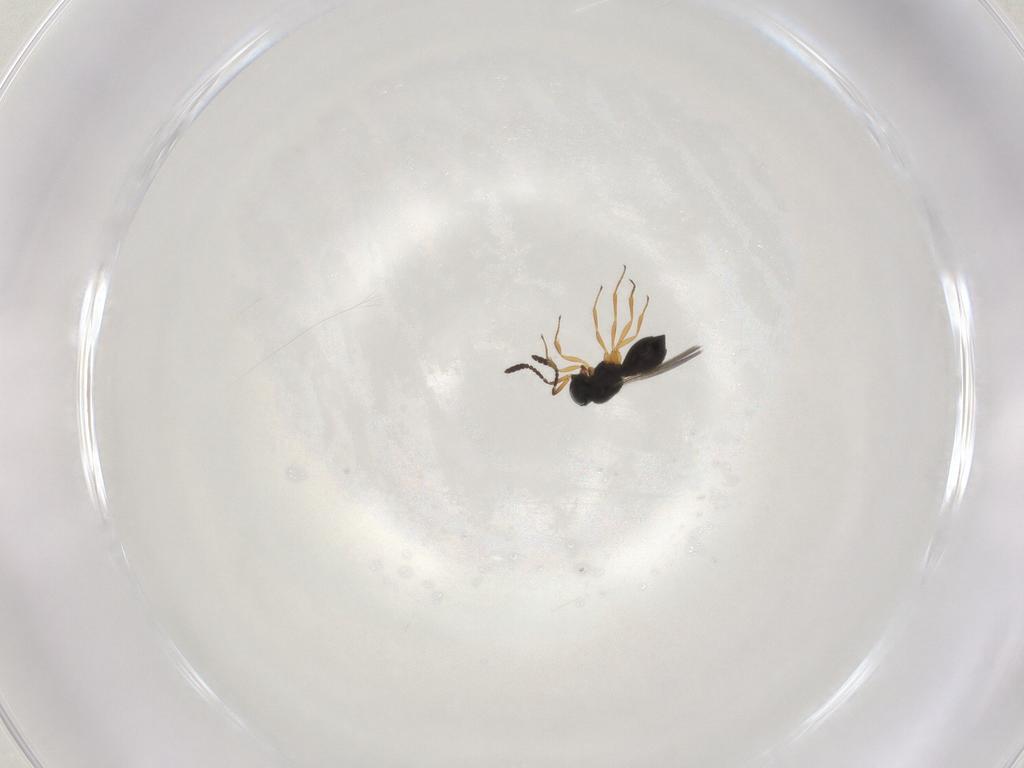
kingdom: Animalia
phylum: Arthropoda
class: Insecta
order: Hymenoptera
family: Scelionidae
